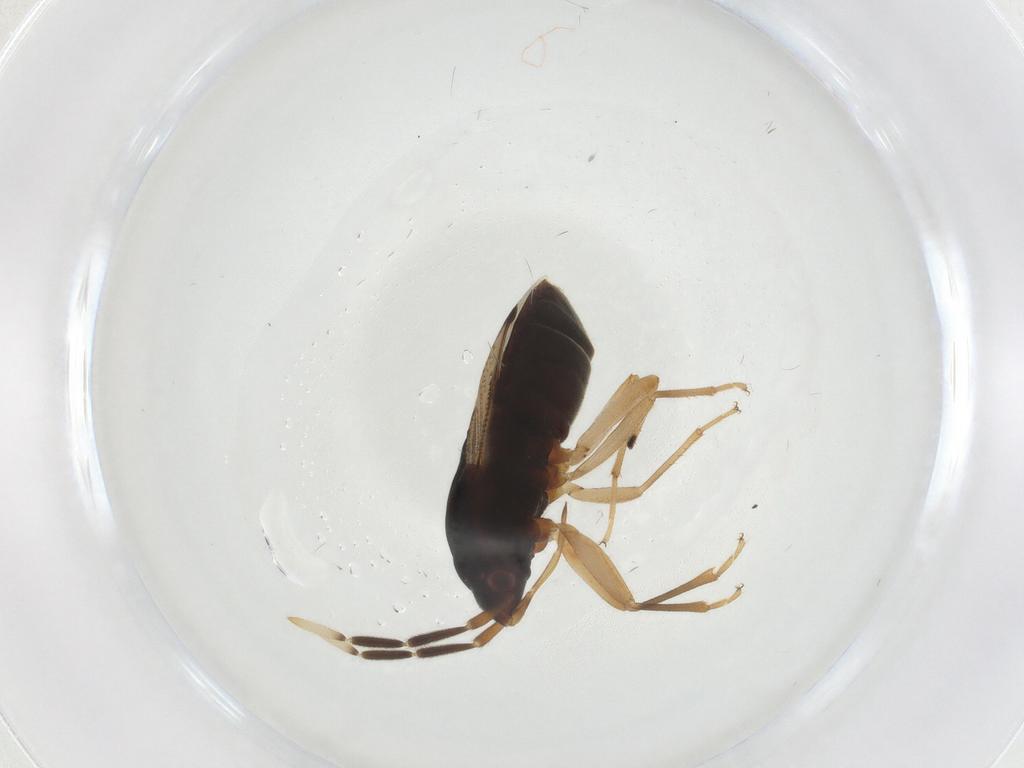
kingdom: Animalia
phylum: Arthropoda
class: Insecta
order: Hemiptera
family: Rhyparochromidae
